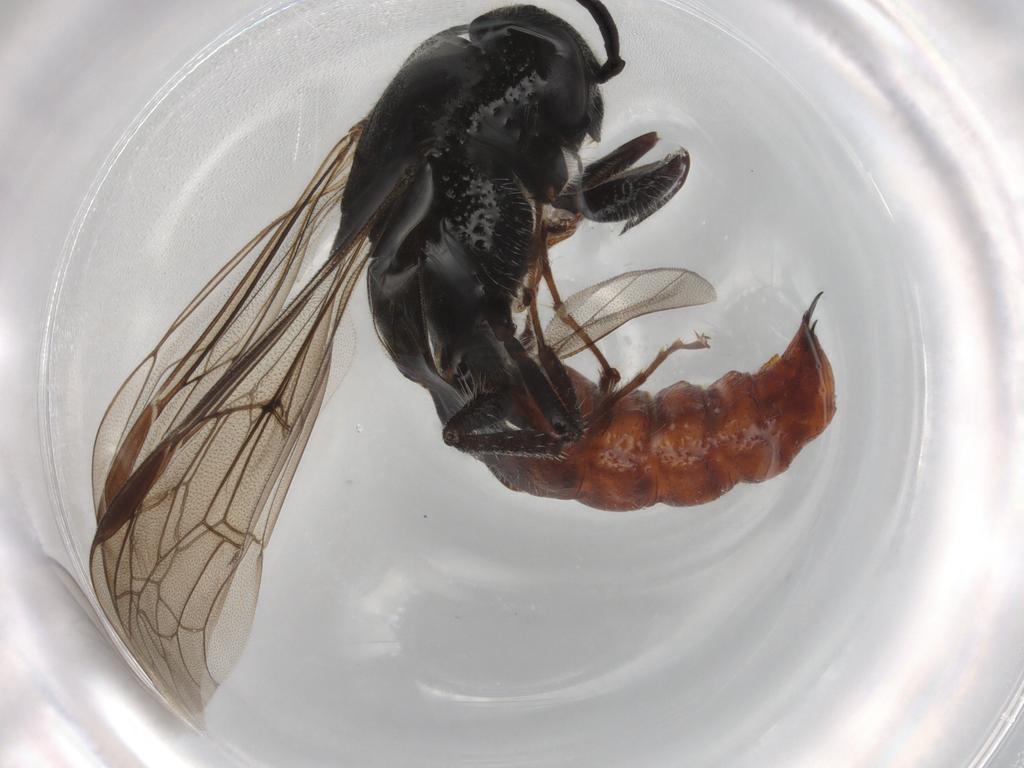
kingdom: Animalia
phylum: Arthropoda
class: Insecta
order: Hymenoptera
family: Thynnidae
